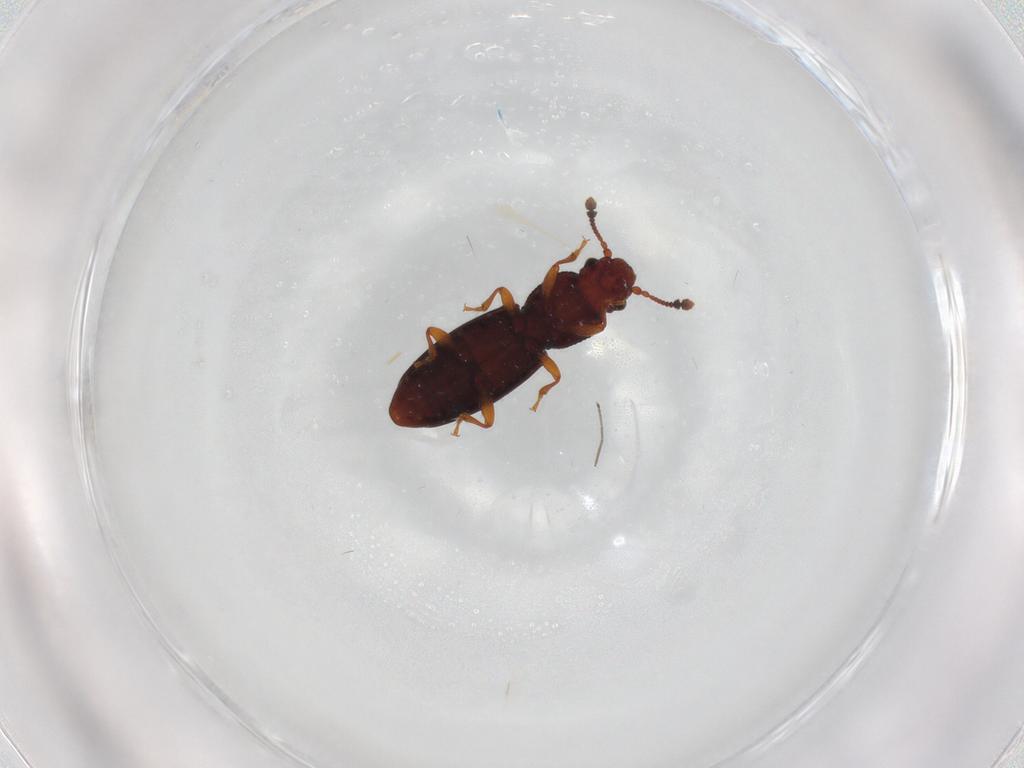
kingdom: Animalia
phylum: Arthropoda
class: Insecta
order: Coleoptera
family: Monotomidae
